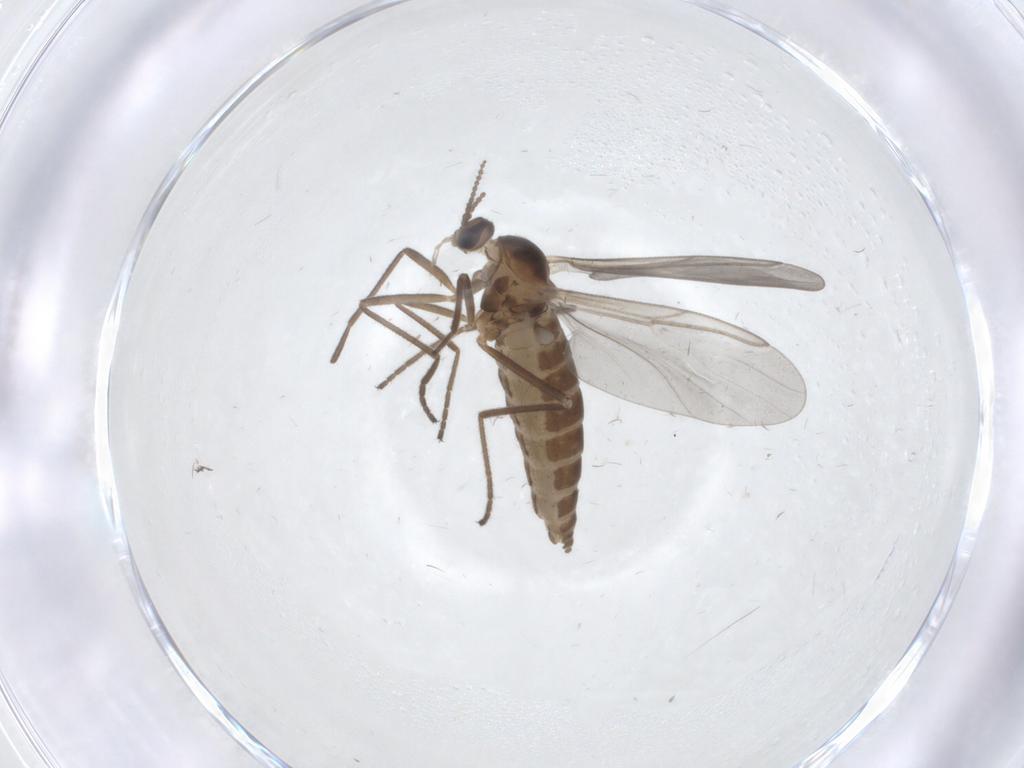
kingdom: Animalia
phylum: Arthropoda
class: Insecta
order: Diptera
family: Cecidomyiidae
